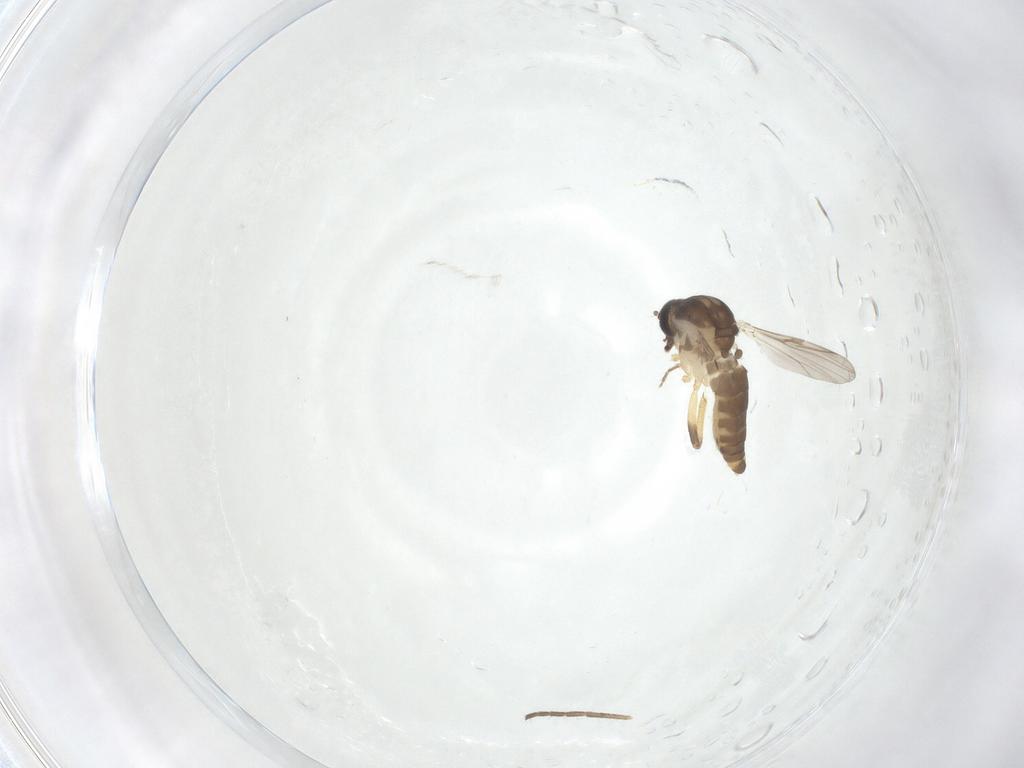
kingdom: Animalia
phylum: Arthropoda
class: Insecta
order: Diptera
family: Ceratopogonidae
